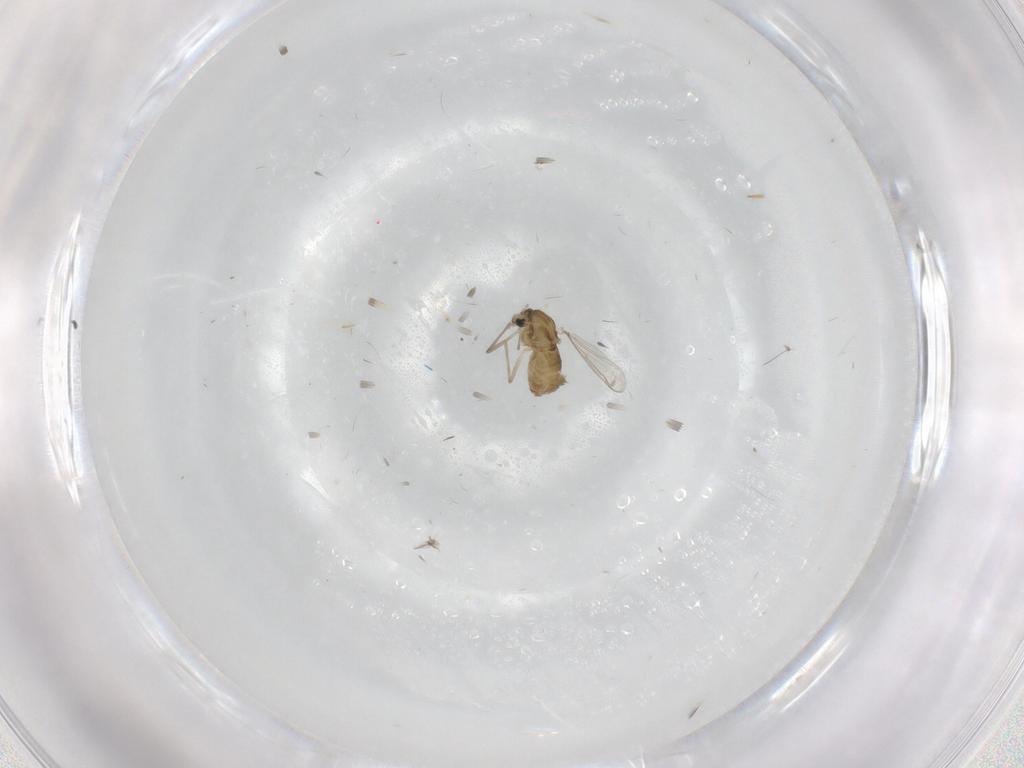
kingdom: Animalia
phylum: Arthropoda
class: Insecta
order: Diptera
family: Chironomidae
